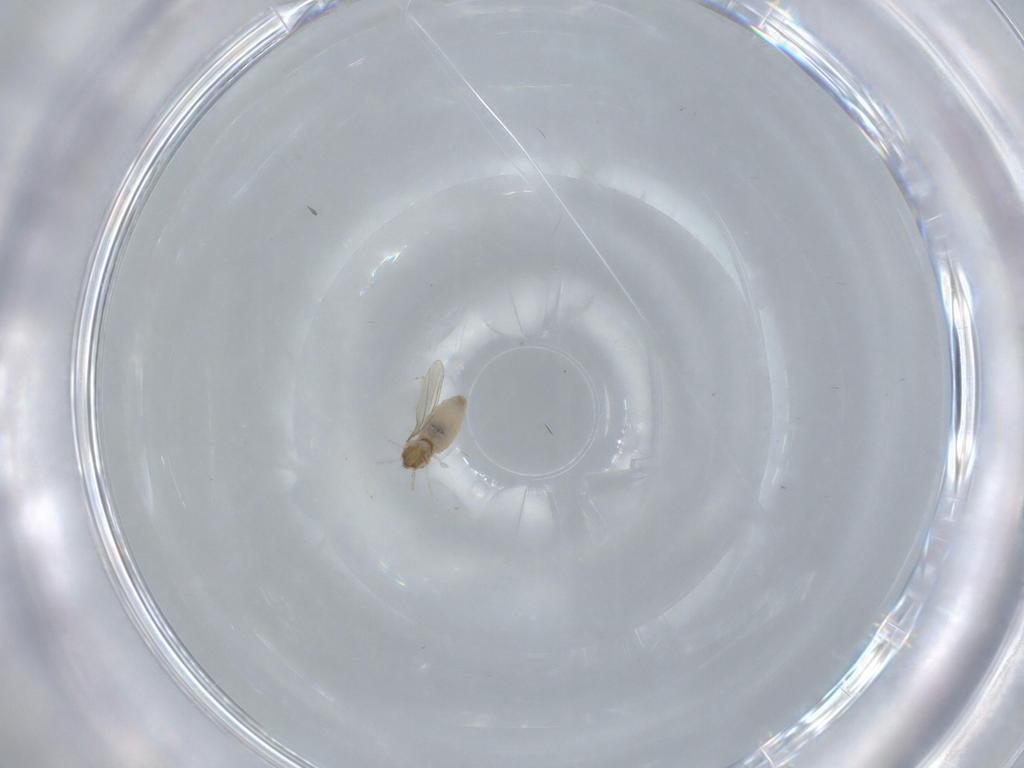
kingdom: Animalia
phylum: Arthropoda
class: Insecta
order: Diptera
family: Cecidomyiidae
